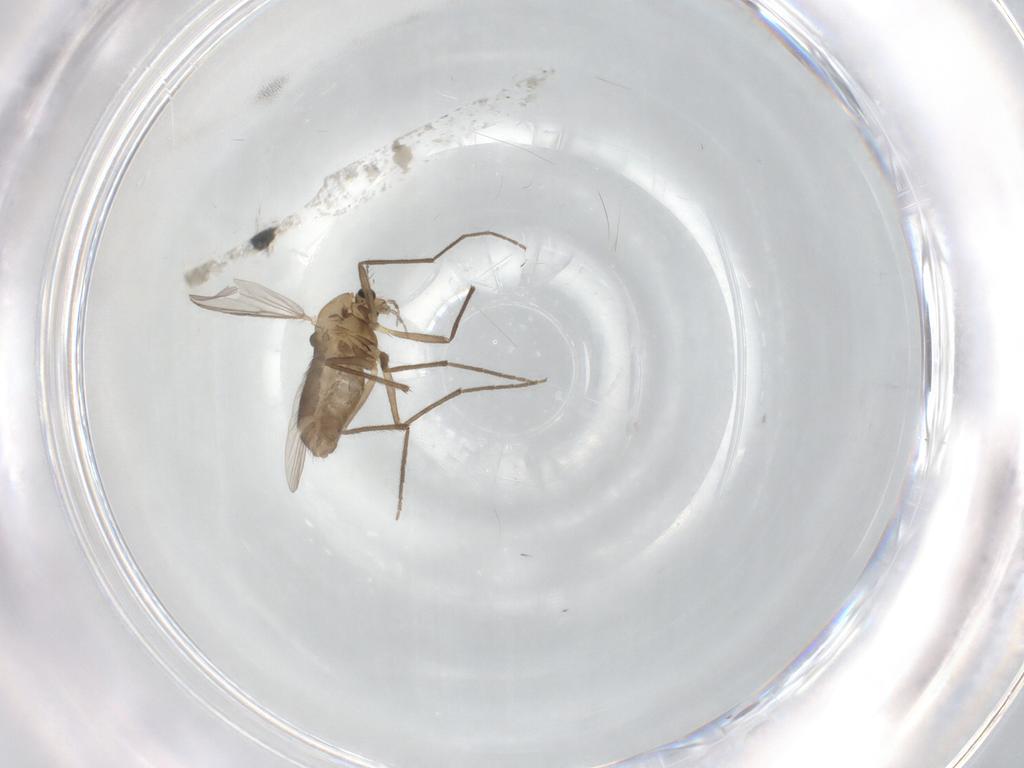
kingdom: Animalia
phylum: Arthropoda
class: Insecta
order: Diptera
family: Chironomidae
